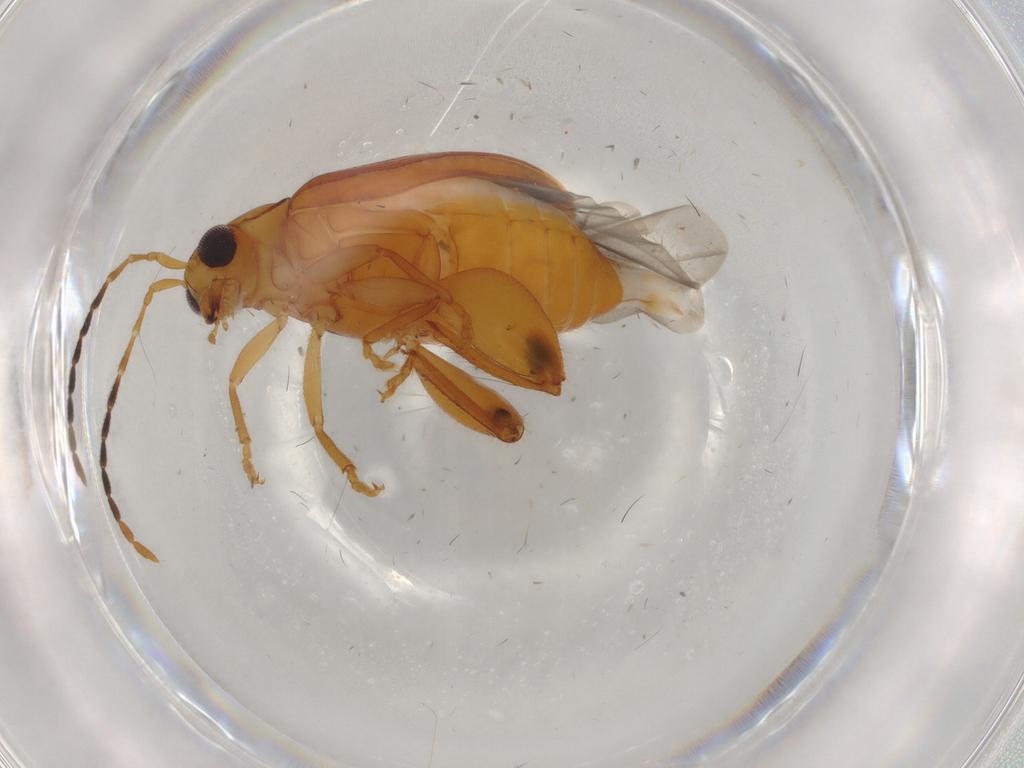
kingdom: Animalia
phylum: Arthropoda
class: Insecta
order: Coleoptera
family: Chrysomelidae
